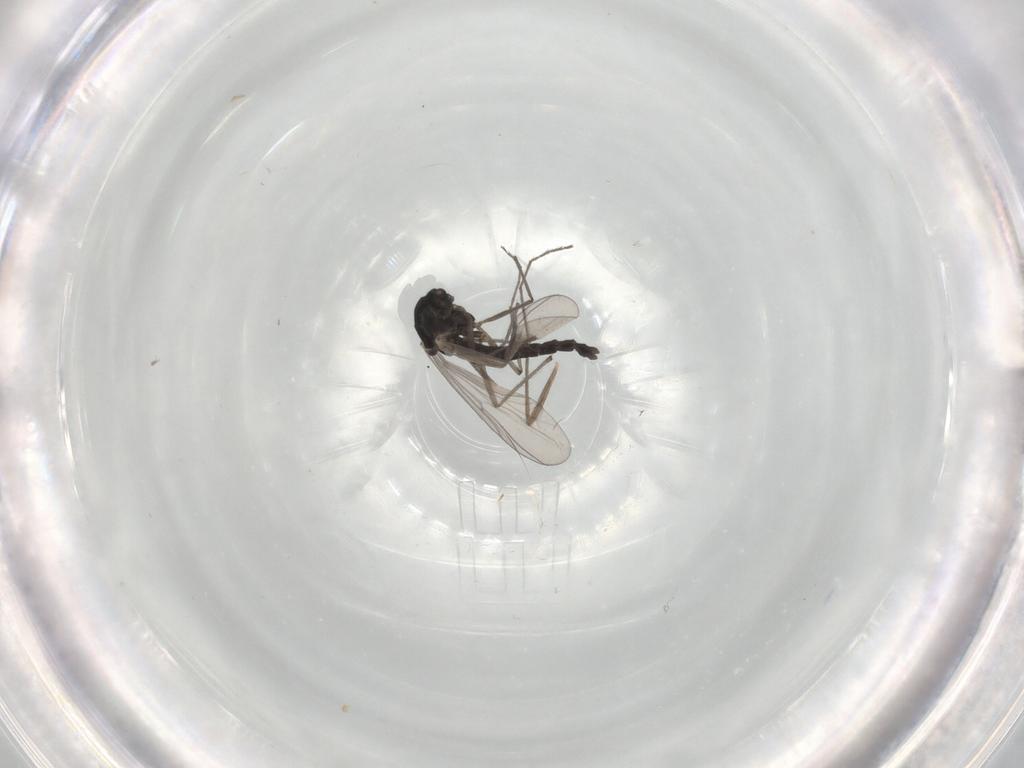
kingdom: Animalia
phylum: Arthropoda
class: Insecta
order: Diptera
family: Chironomidae
